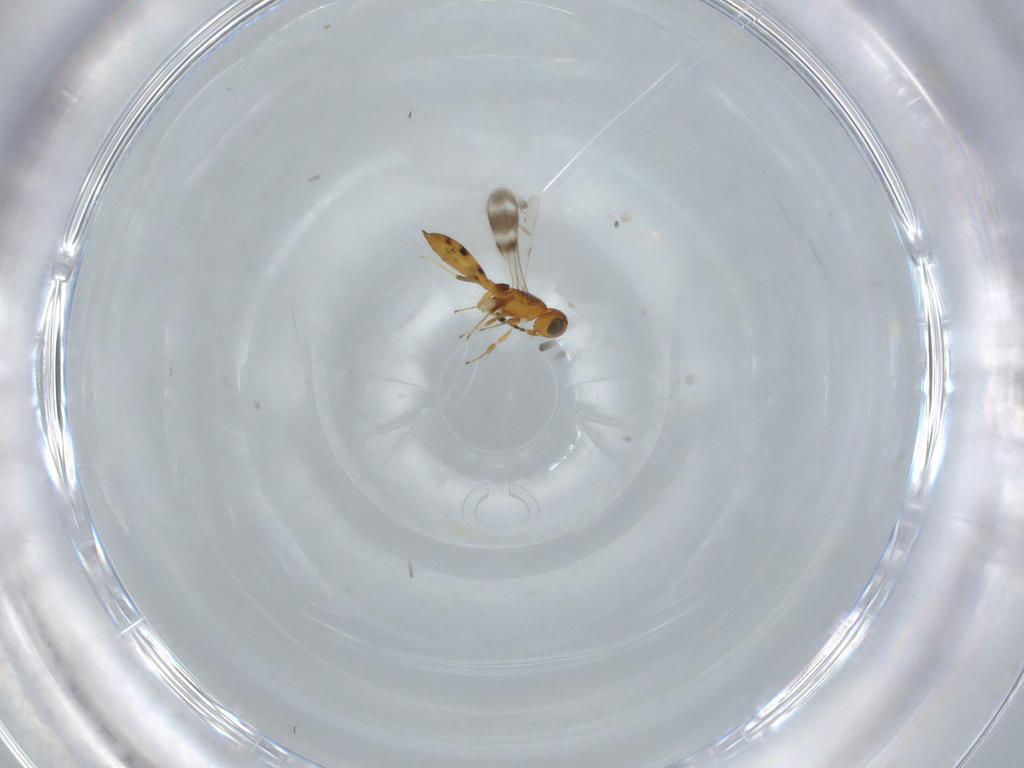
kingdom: Animalia
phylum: Arthropoda
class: Insecta
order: Hymenoptera
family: Scelionidae
